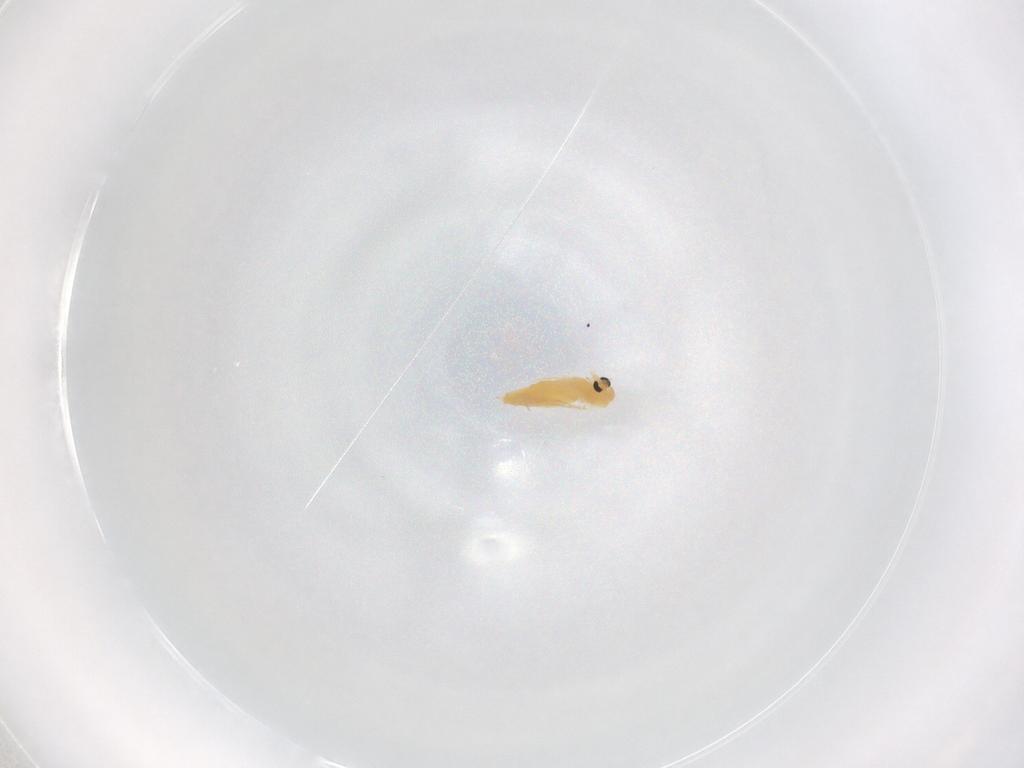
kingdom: Animalia
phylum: Arthropoda
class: Insecta
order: Diptera
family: Chironomidae
